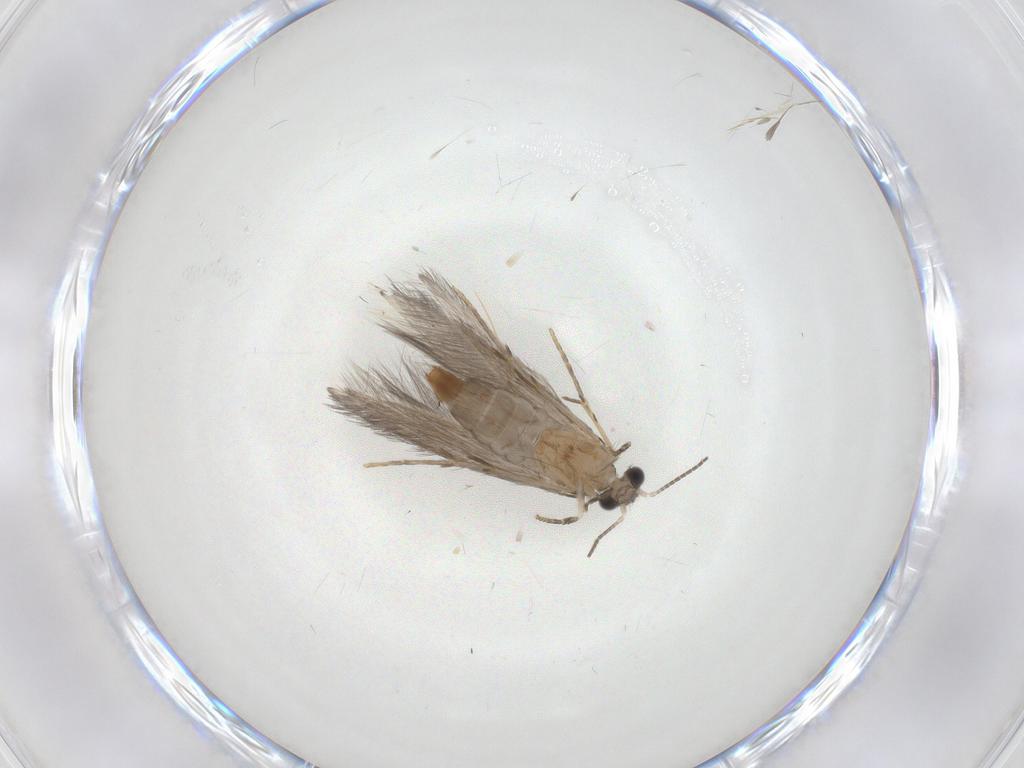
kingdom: Animalia
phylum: Arthropoda
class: Insecta
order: Trichoptera
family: Hydroptilidae
